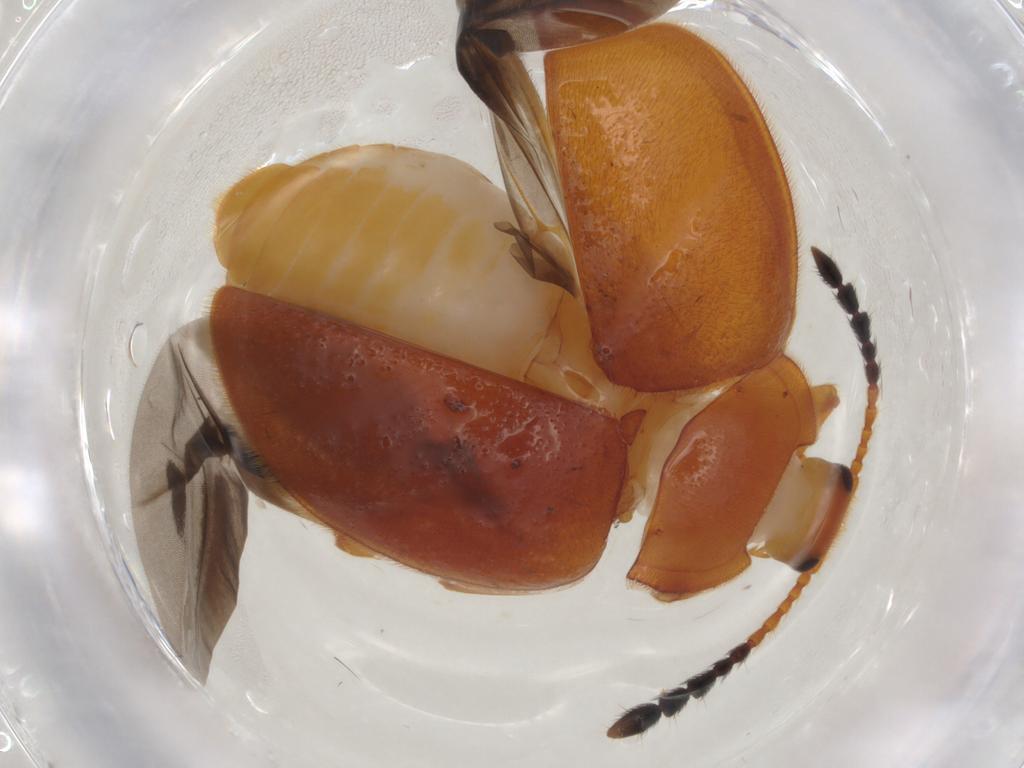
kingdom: Animalia
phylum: Arthropoda
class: Insecta
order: Coleoptera
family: Endomychidae
